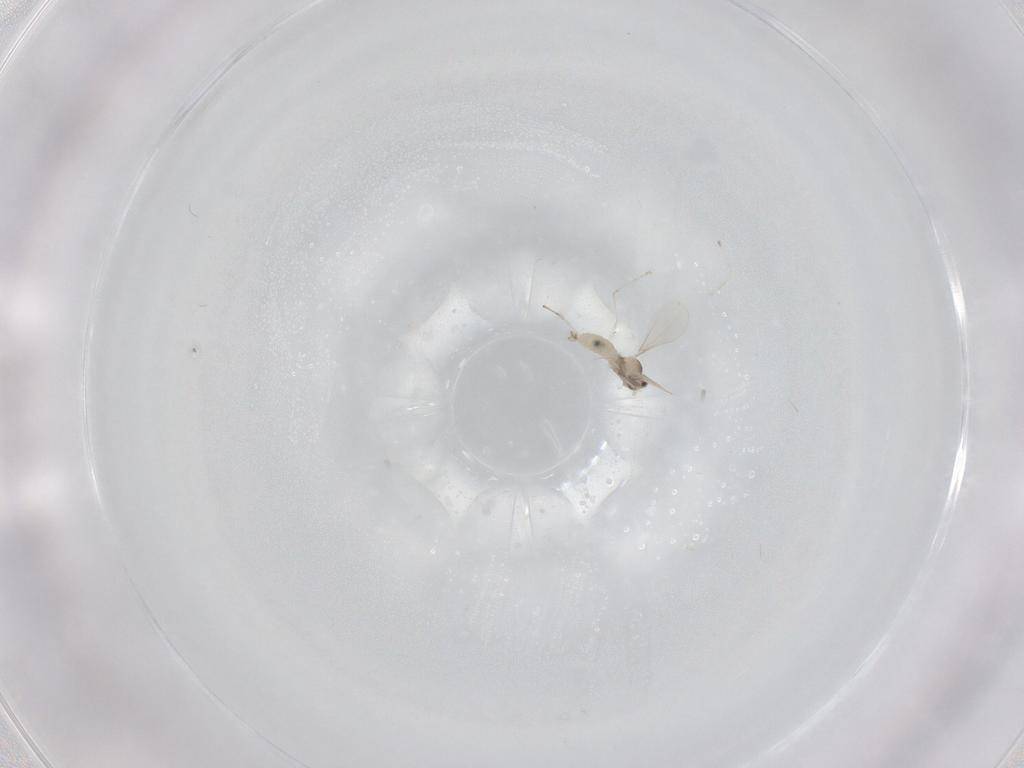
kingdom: Animalia
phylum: Arthropoda
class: Insecta
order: Diptera
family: Cecidomyiidae
